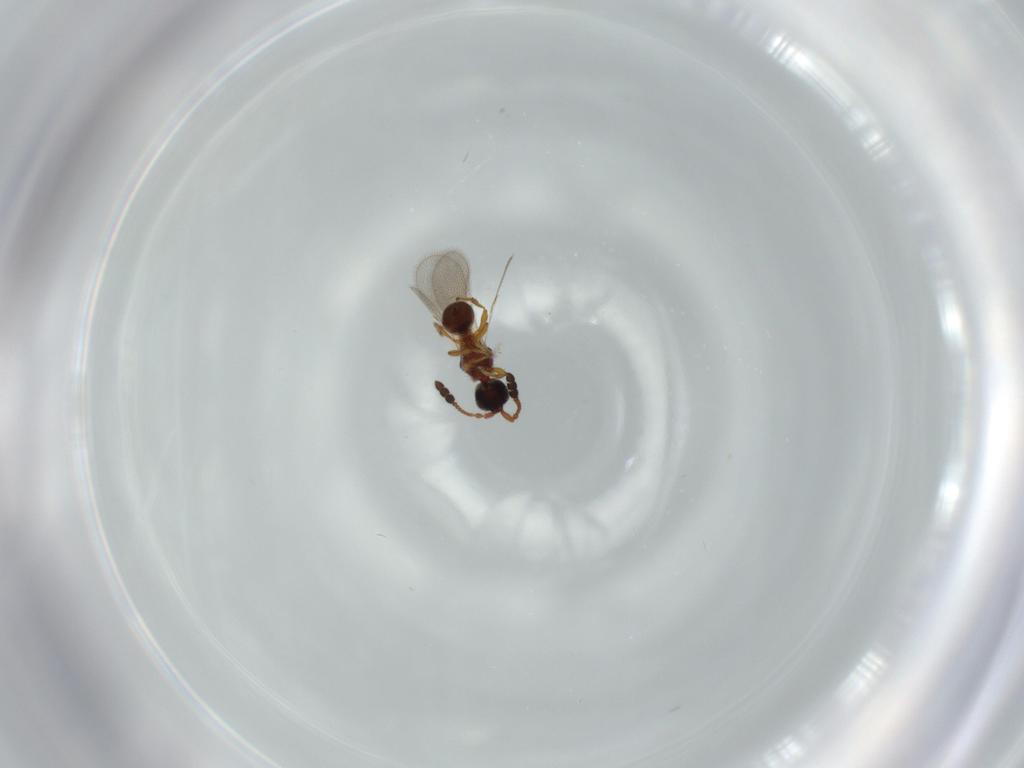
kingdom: Animalia
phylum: Arthropoda
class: Insecta
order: Hymenoptera
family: Diapriidae
